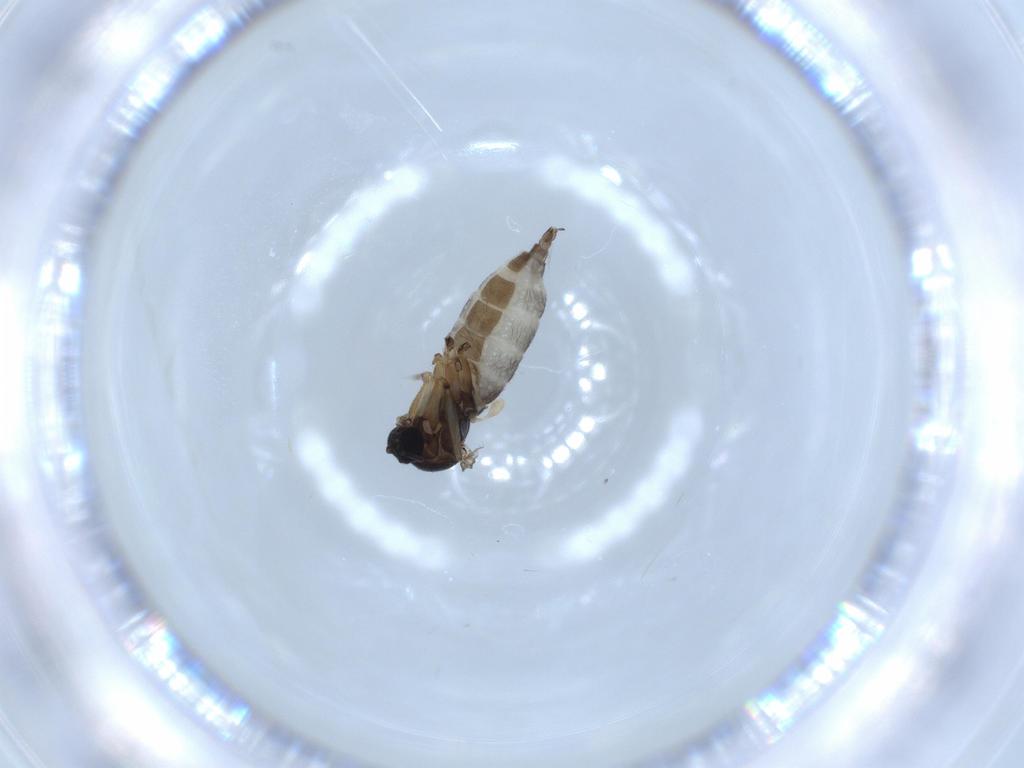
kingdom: Animalia
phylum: Arthropoda
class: Insecta
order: Diptera
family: Sciaridae
